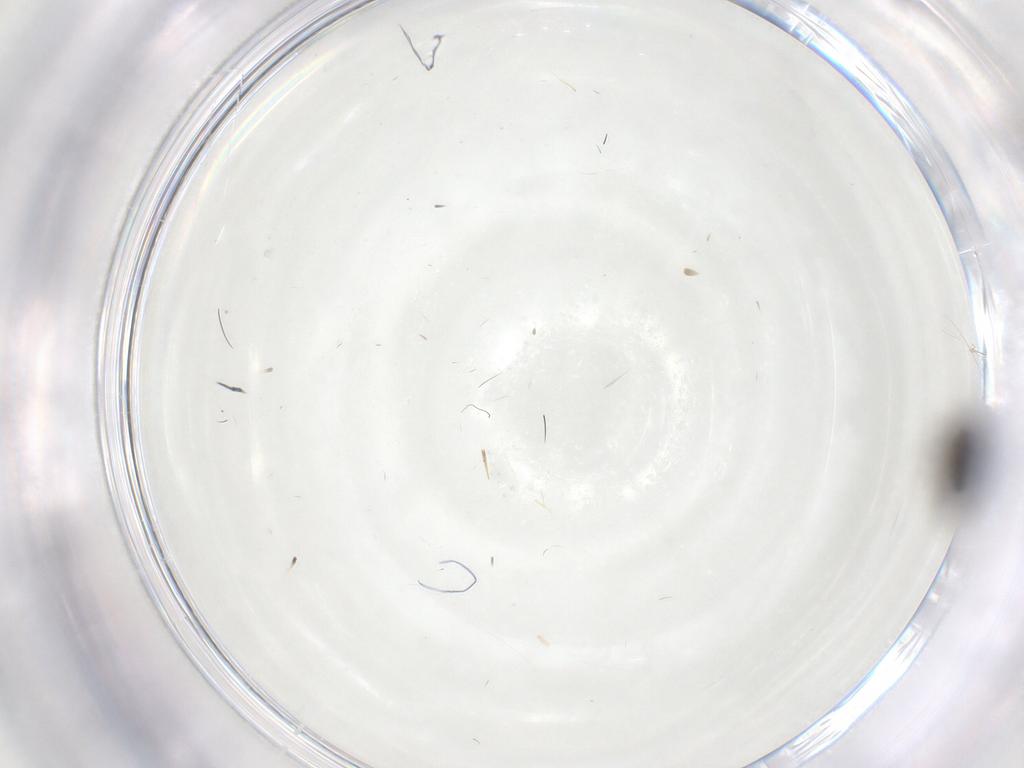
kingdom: Animalia
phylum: Arthropoda
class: Insecta
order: Diptera
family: Sciaridae
